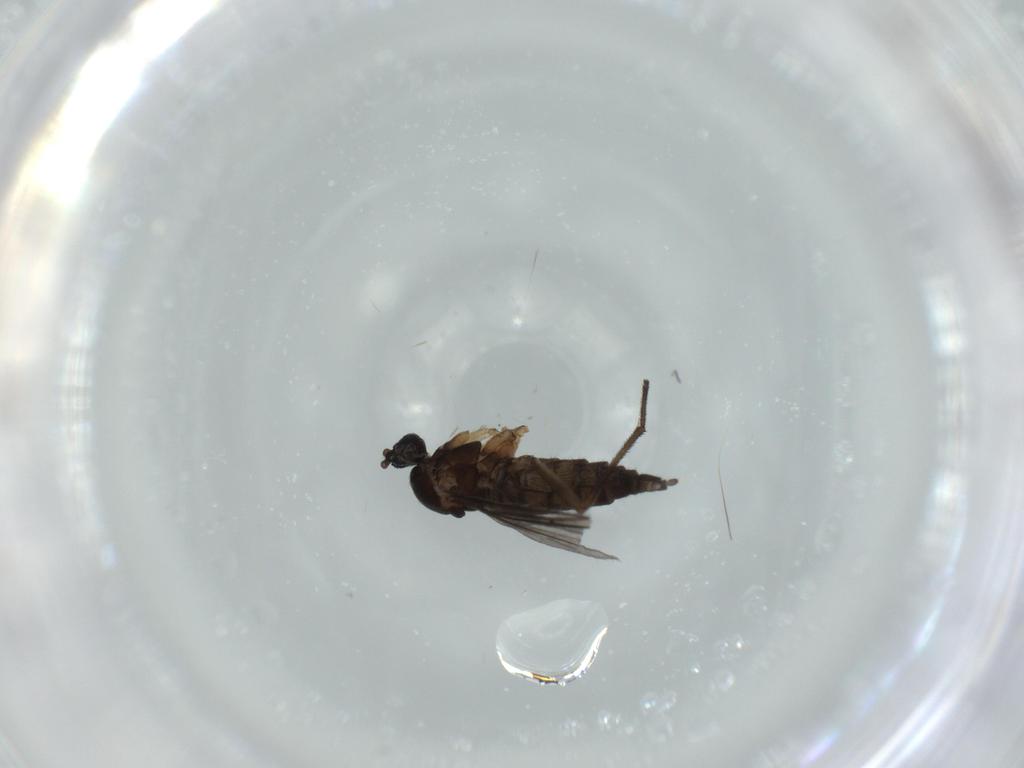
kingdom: Animalia
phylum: Arthropoda
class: Insecta
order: Diptera
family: Sciaridae
